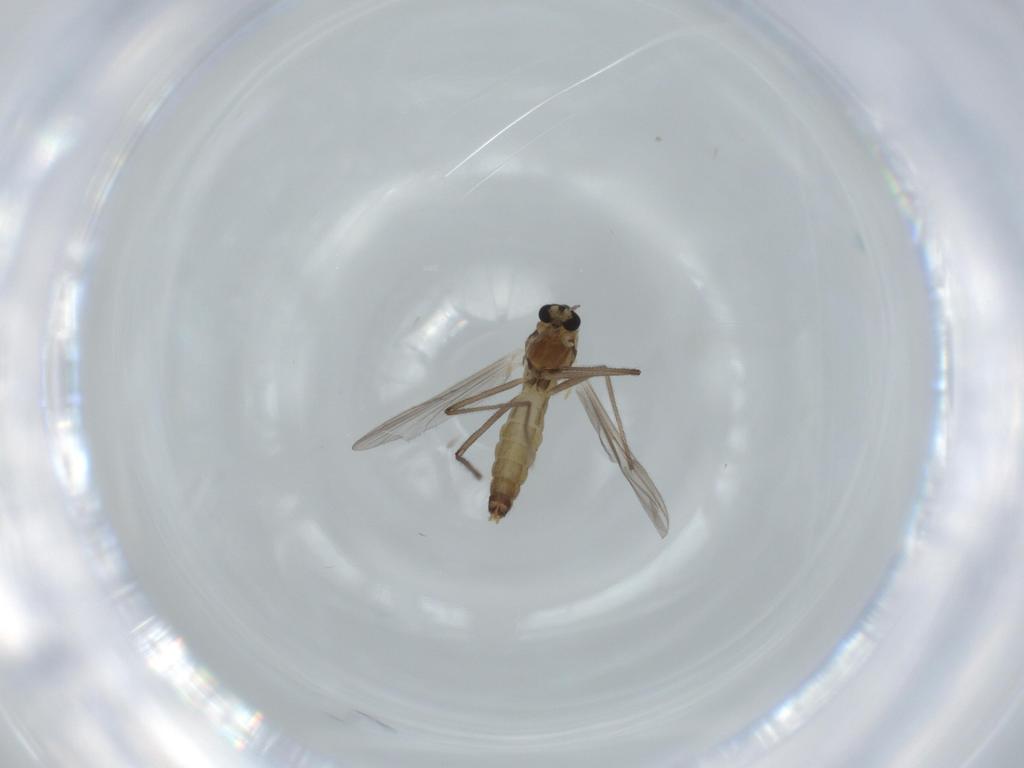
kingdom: Animalia
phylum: Arthropoda
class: Insecta
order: Diptera
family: Chironomidae
